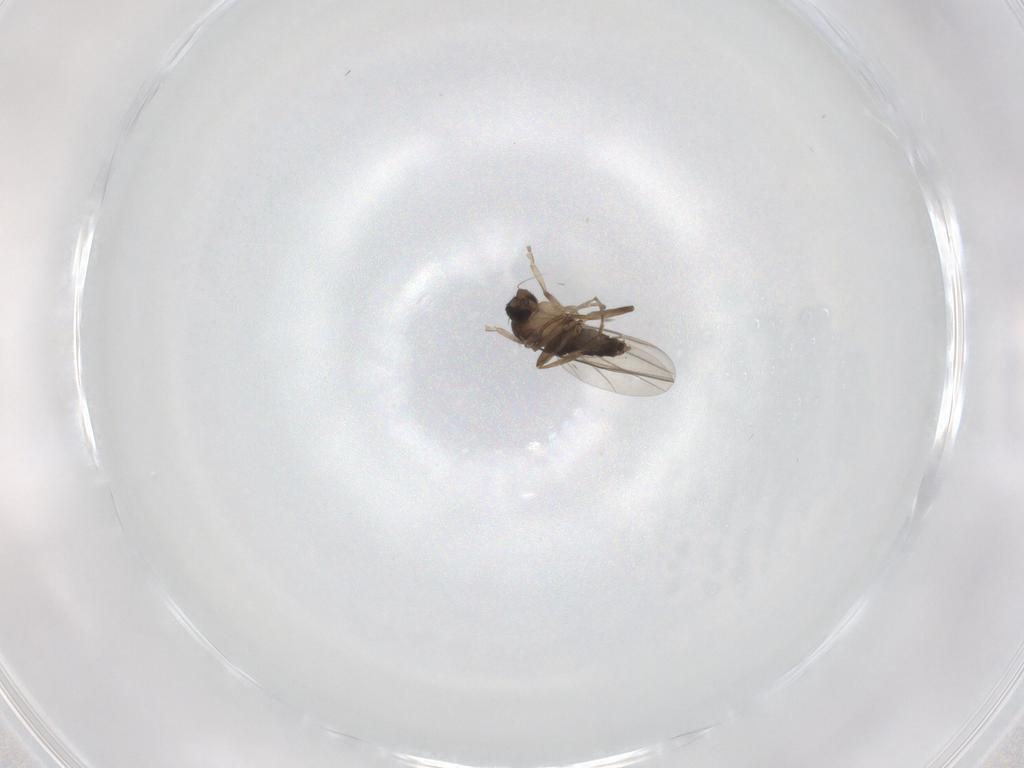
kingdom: Animalia
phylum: Arthropoda
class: Insecta
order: Diptera
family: Phoridae
